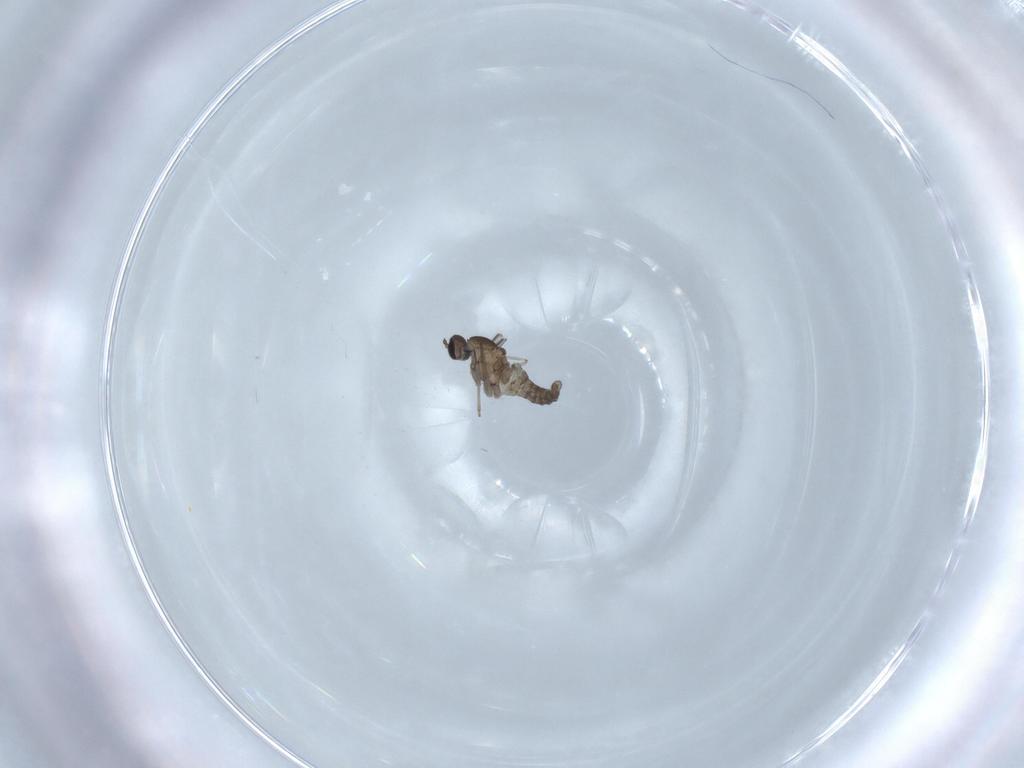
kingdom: Animalia
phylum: Arthropoda
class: Insecta
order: Diptera
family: Cecidomyiidae
